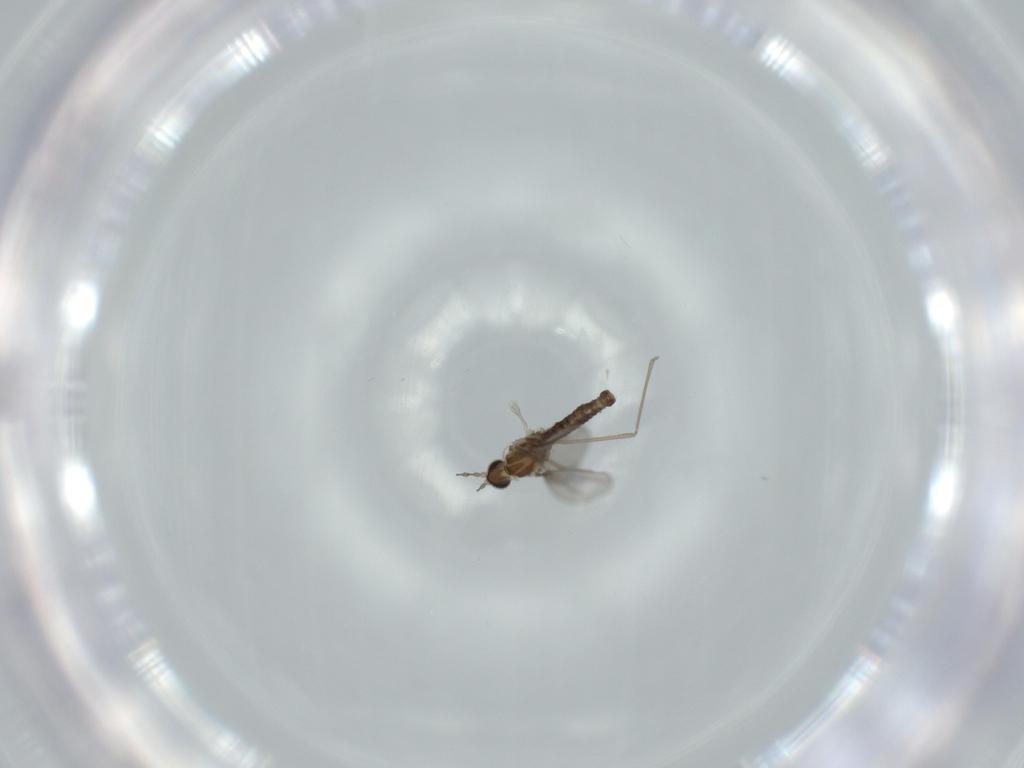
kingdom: Animalia
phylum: Arthropoda
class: Insecta
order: Diptera
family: Cecidomyiidae
